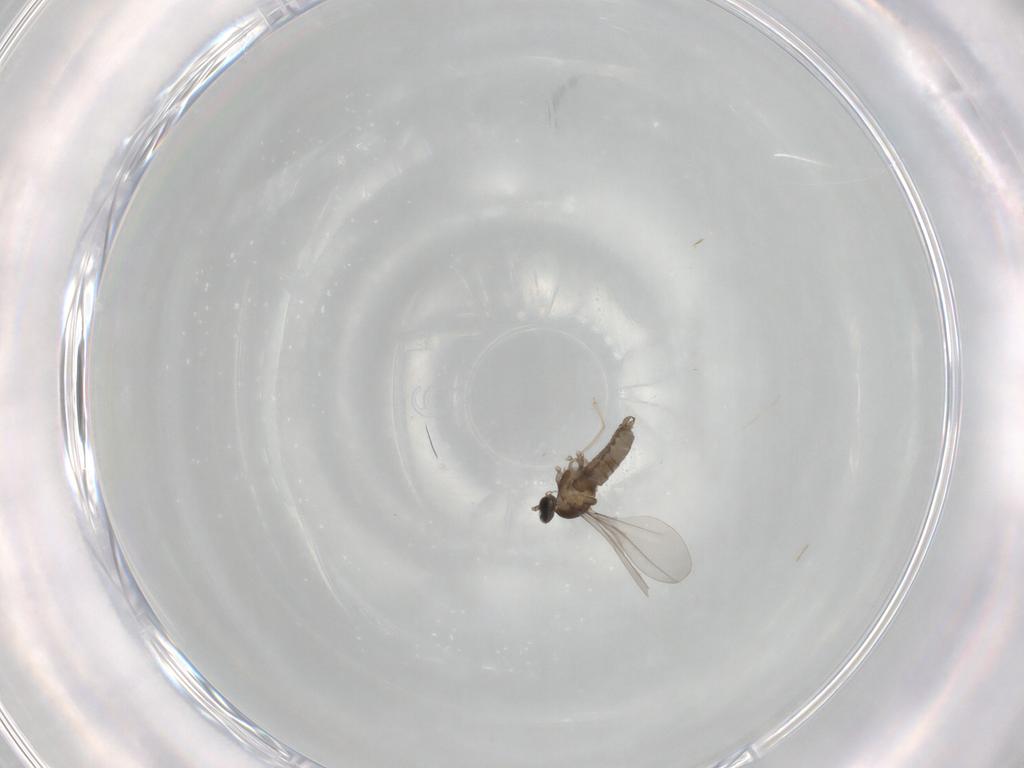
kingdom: Animalia
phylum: Arthropoda
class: Insecta
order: Diptera
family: Cecidomyiidae
